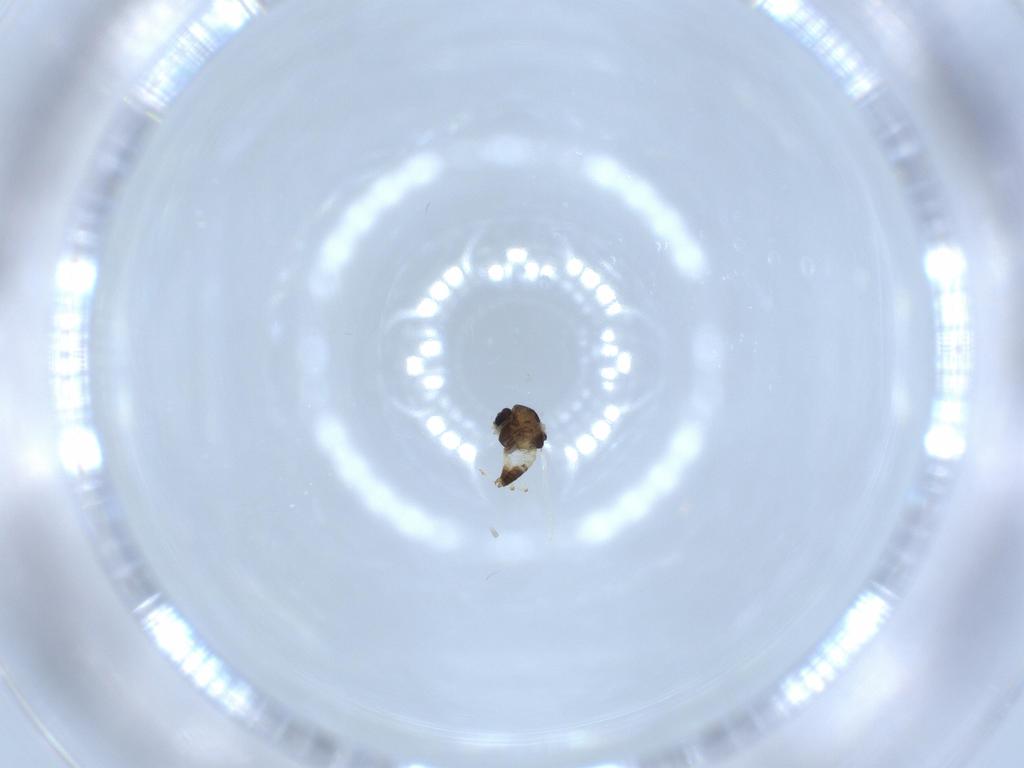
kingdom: Animalia
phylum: Arthropoda
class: Insecta
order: Diptera
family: Chironomidae
